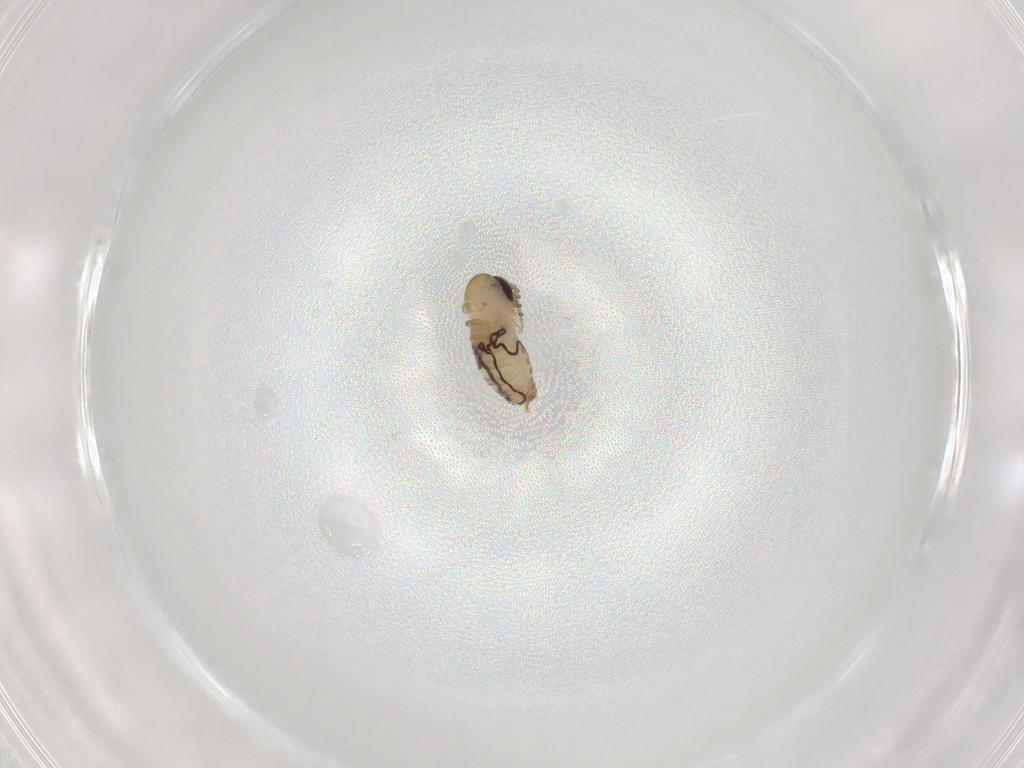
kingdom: Animalia
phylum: Arthropoda
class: Insecta
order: Diptera
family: Psychodidae
